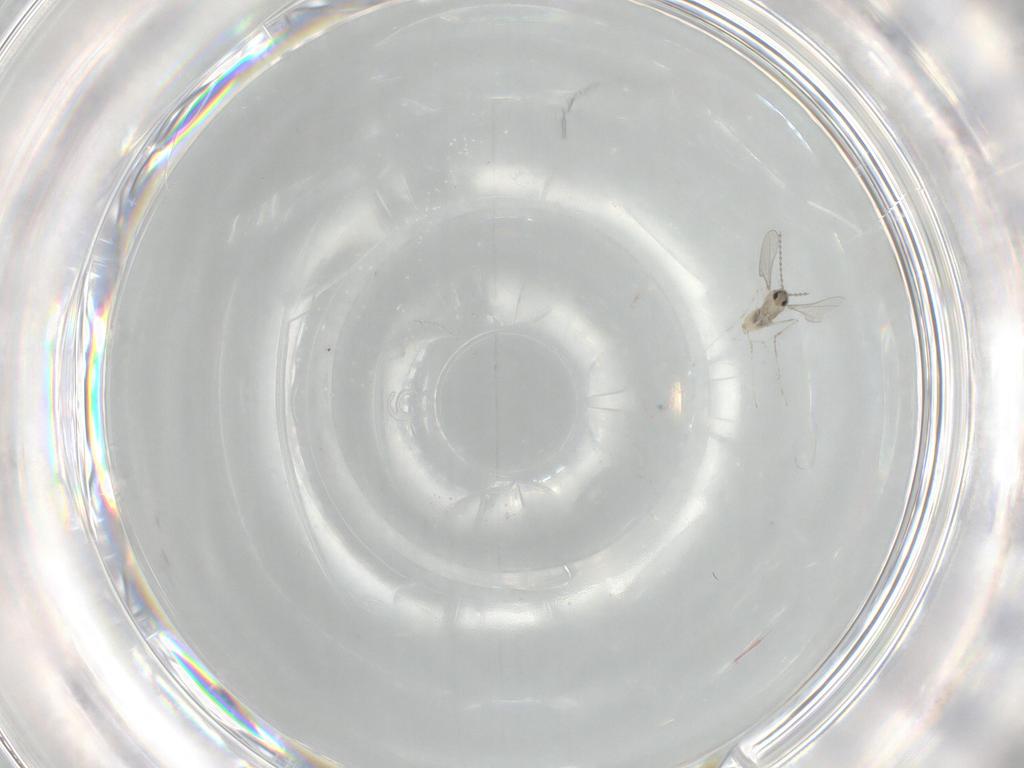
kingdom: Animalia
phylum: Arthropoda
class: Insecta
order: Diptera
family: Cecidomyiidae
